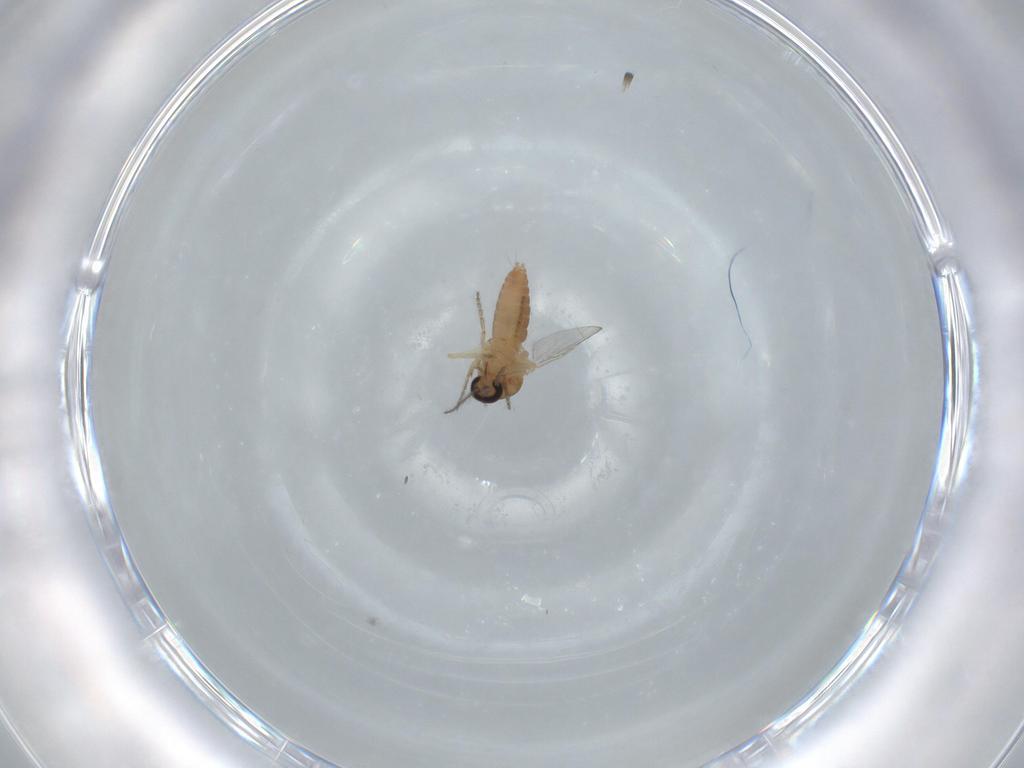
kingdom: Animalia
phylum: Arthropoda
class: Insecta
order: Diptera
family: Ceratopogonidae
